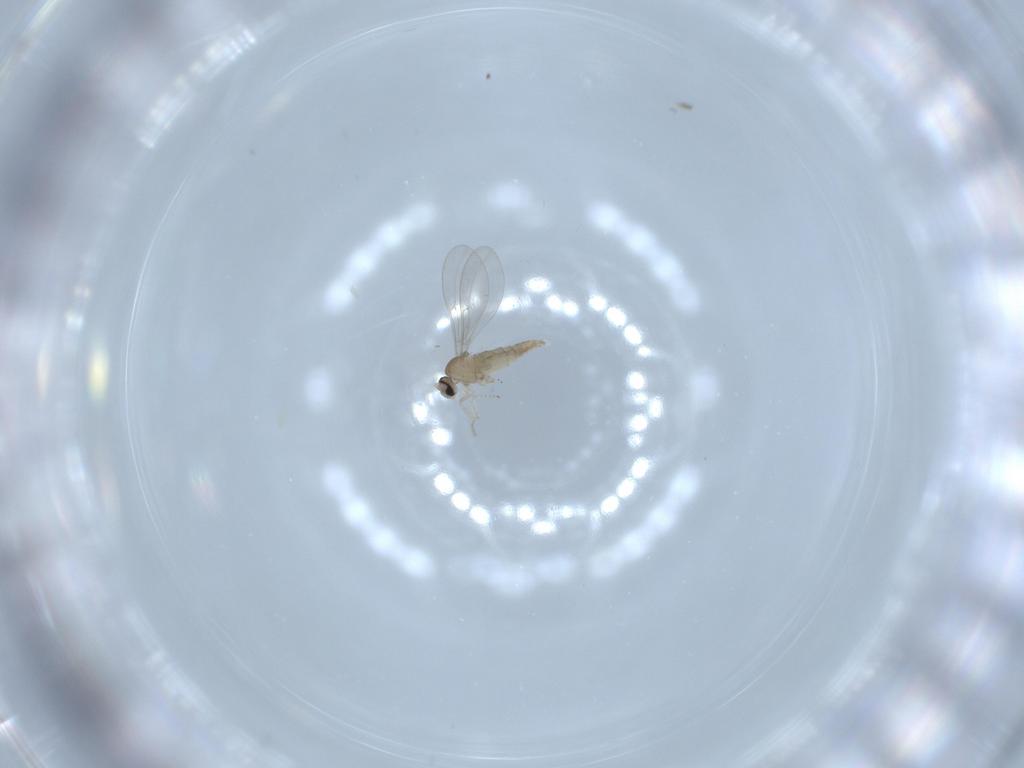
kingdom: Animalia
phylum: Arthropoda
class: Insecta
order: Diptera
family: Cecidomyiidae
